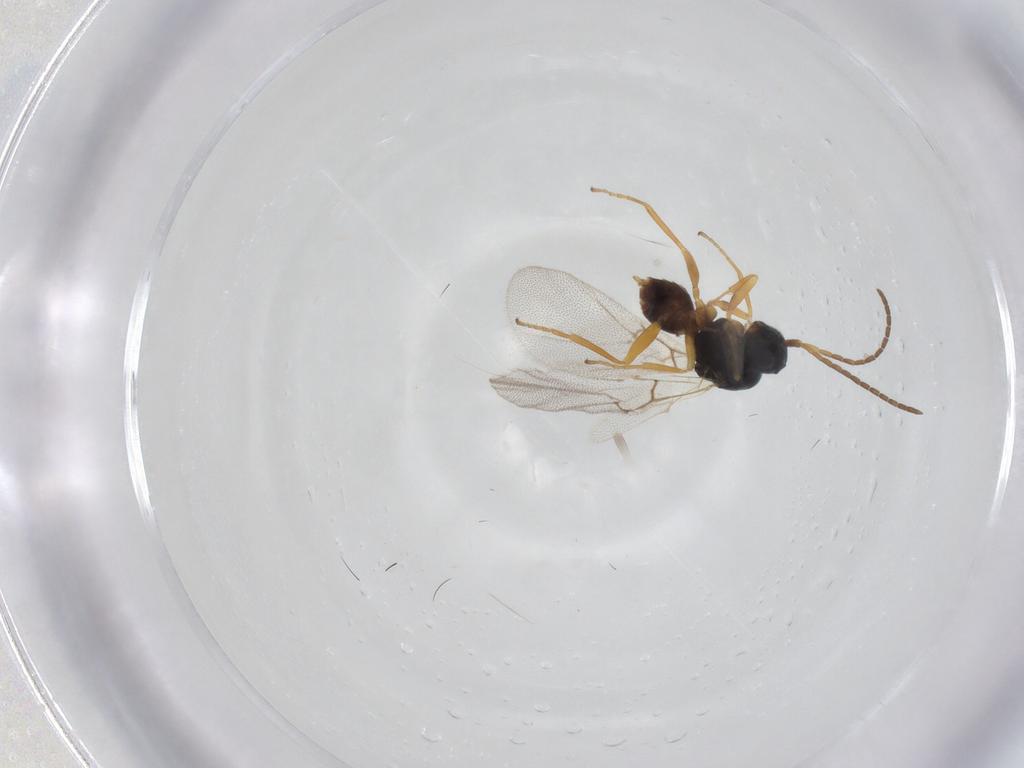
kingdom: Animalia
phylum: Arthropoda
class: Insecta
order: Hymenoptera
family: Cynipidae
